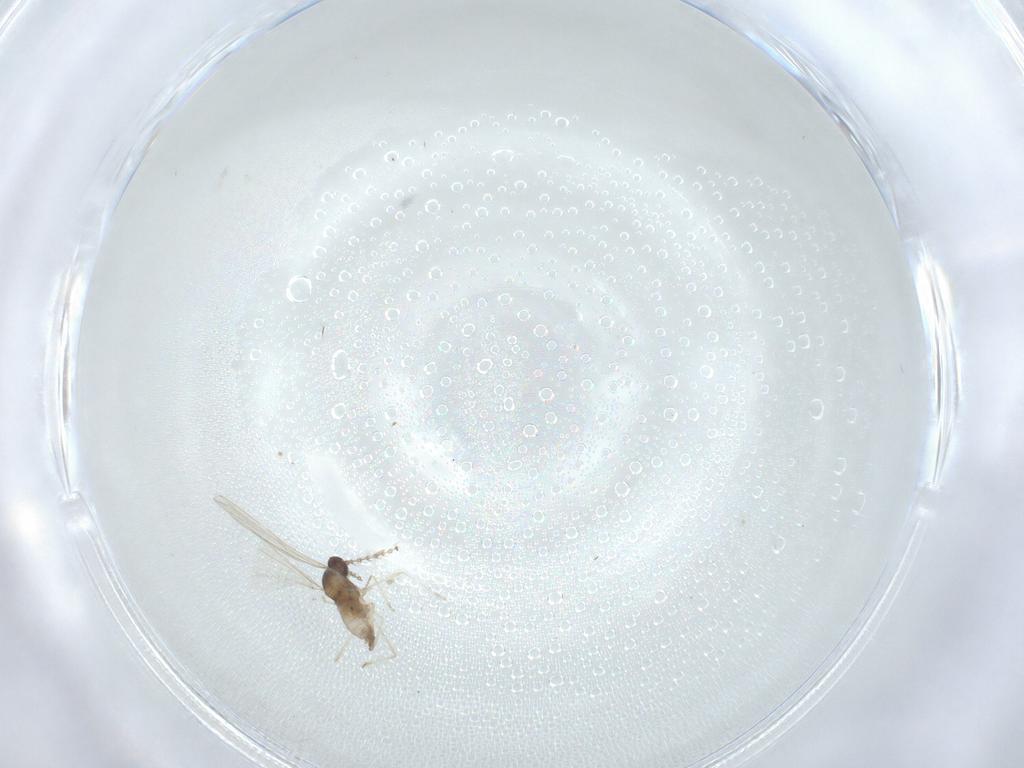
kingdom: Animalia
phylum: Arthropoda
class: Insecta
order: Diptera
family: Cecidomyiidae
